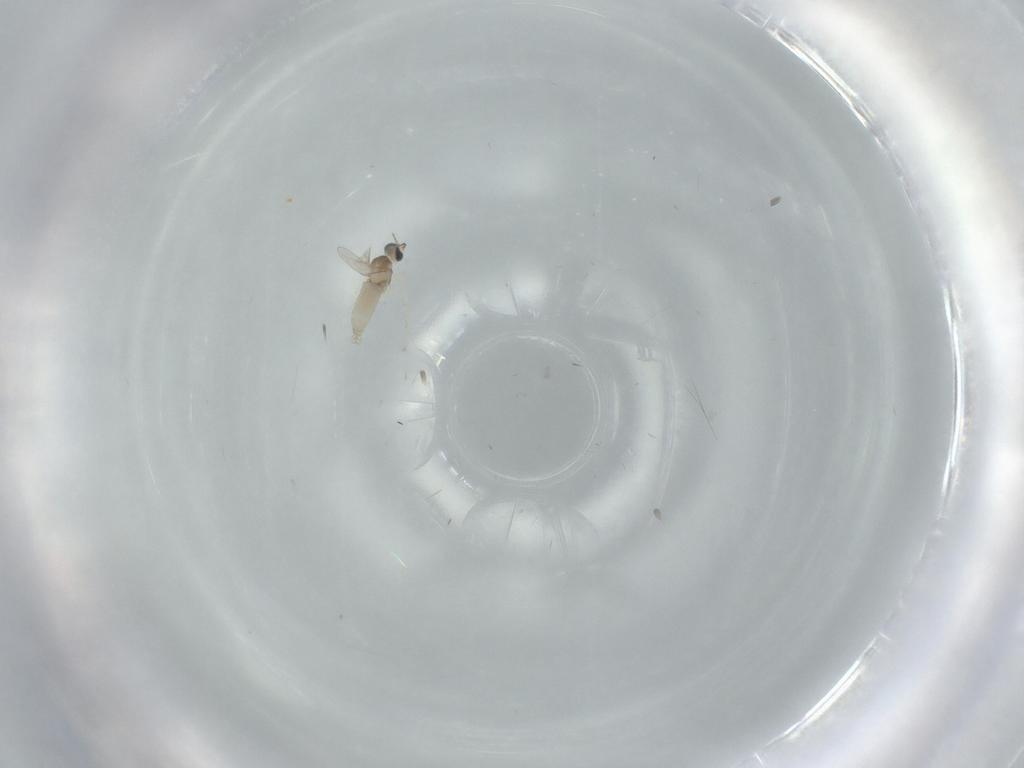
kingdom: Animalia
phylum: Arthropoda
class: Insecta
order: Diptera
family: Psychodidae
